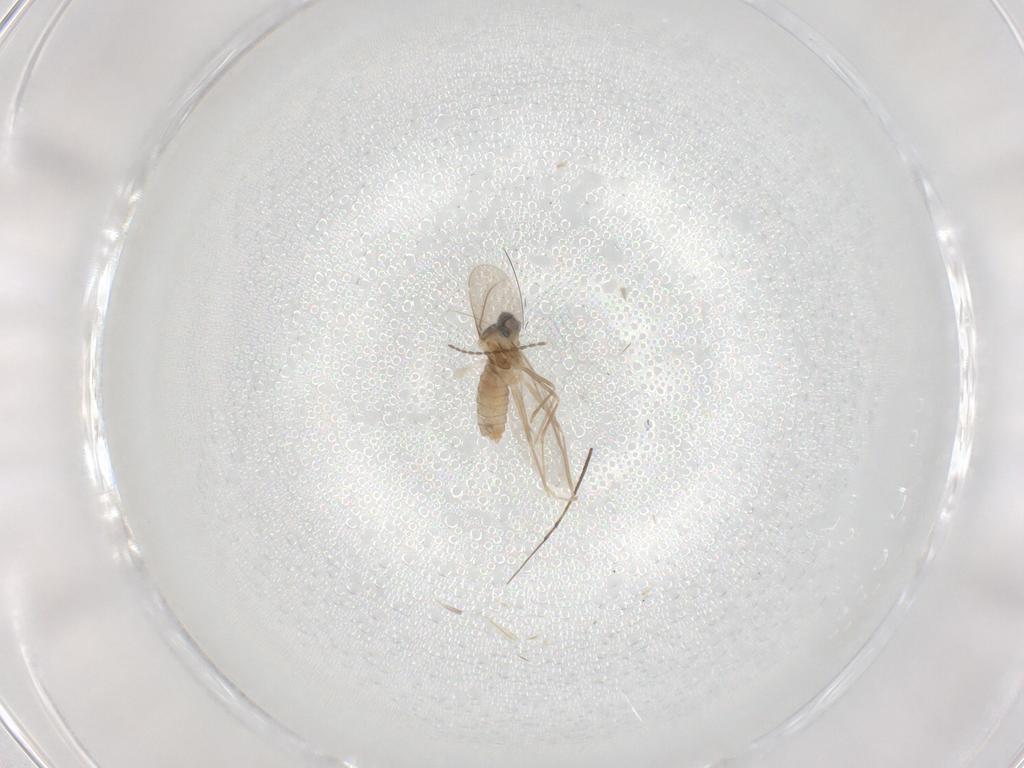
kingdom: Animalia
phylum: Arthropoda
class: Insecta
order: Diptera
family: Cecidomyiidae
